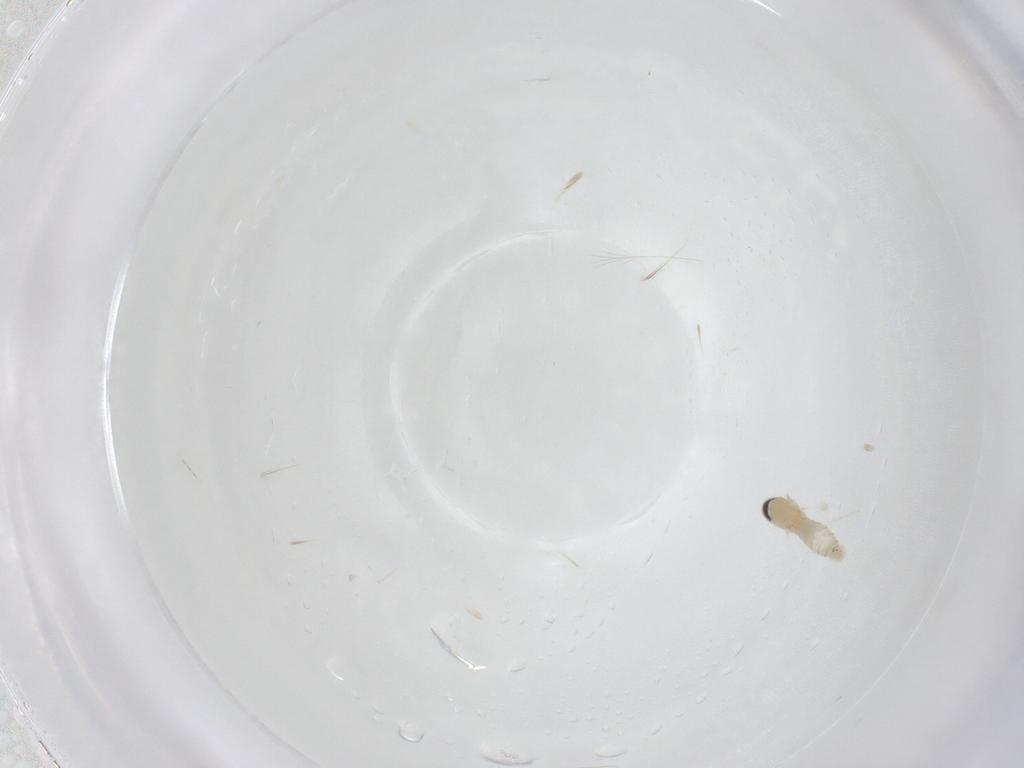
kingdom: Animalia
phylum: Arthropoda
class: Insecta
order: Diptera
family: Cecidomyiidae
